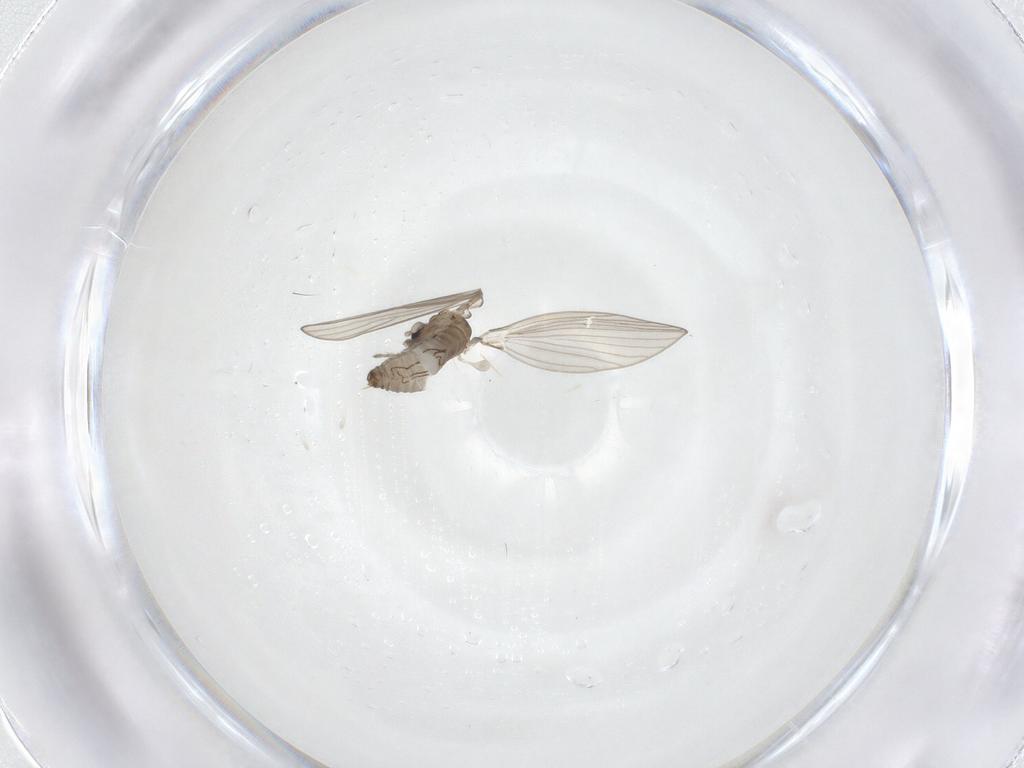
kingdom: Animalia
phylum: Arthropoda
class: Insecta
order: Diptera
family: Psychodidae
